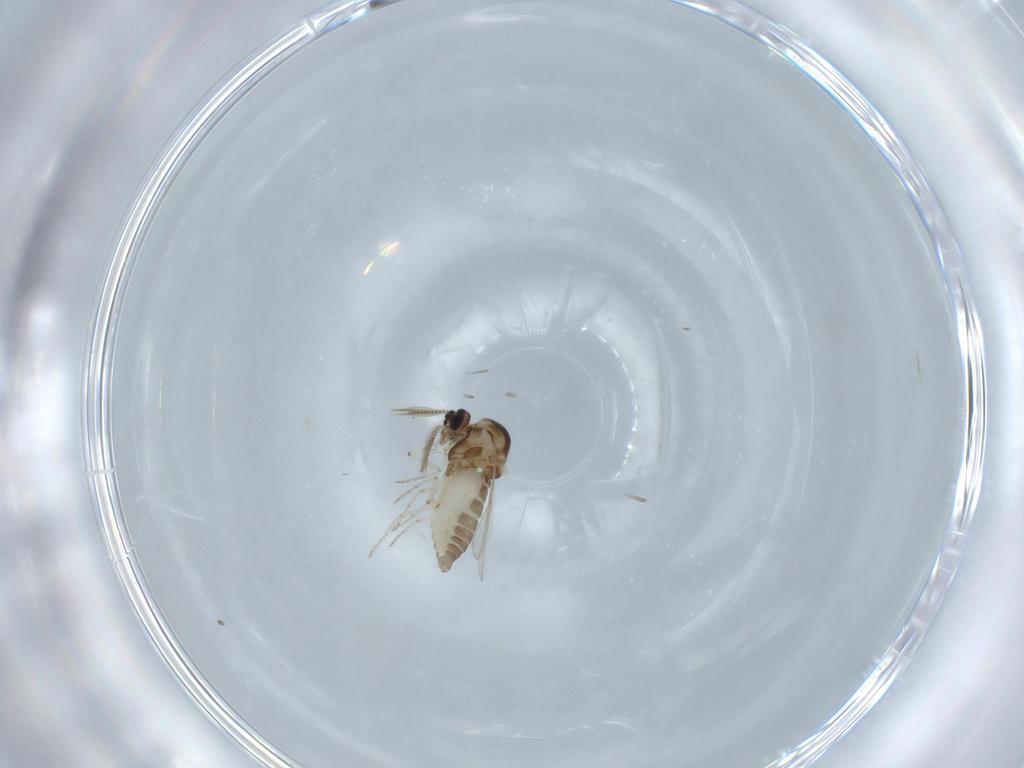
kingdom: Animalia
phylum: Arthropoda
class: Insecta
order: Diptera
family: Ceratopogonidae
